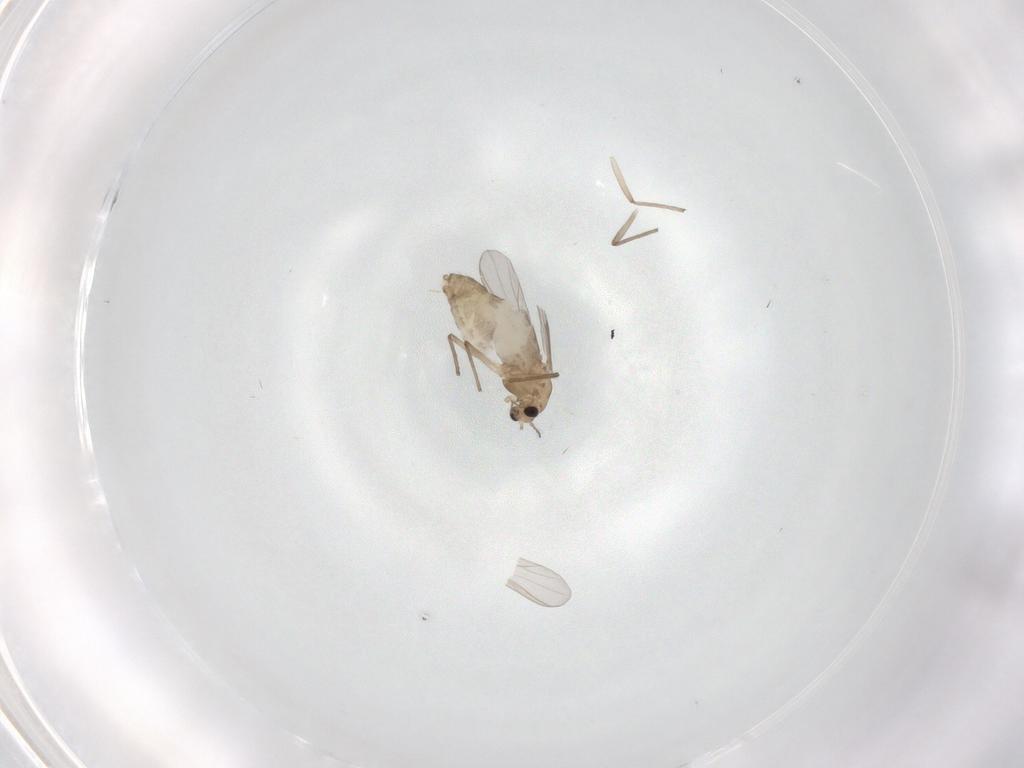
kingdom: Animalia
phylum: Arthropoda
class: Insecta
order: Diptera
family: Chironomidae
